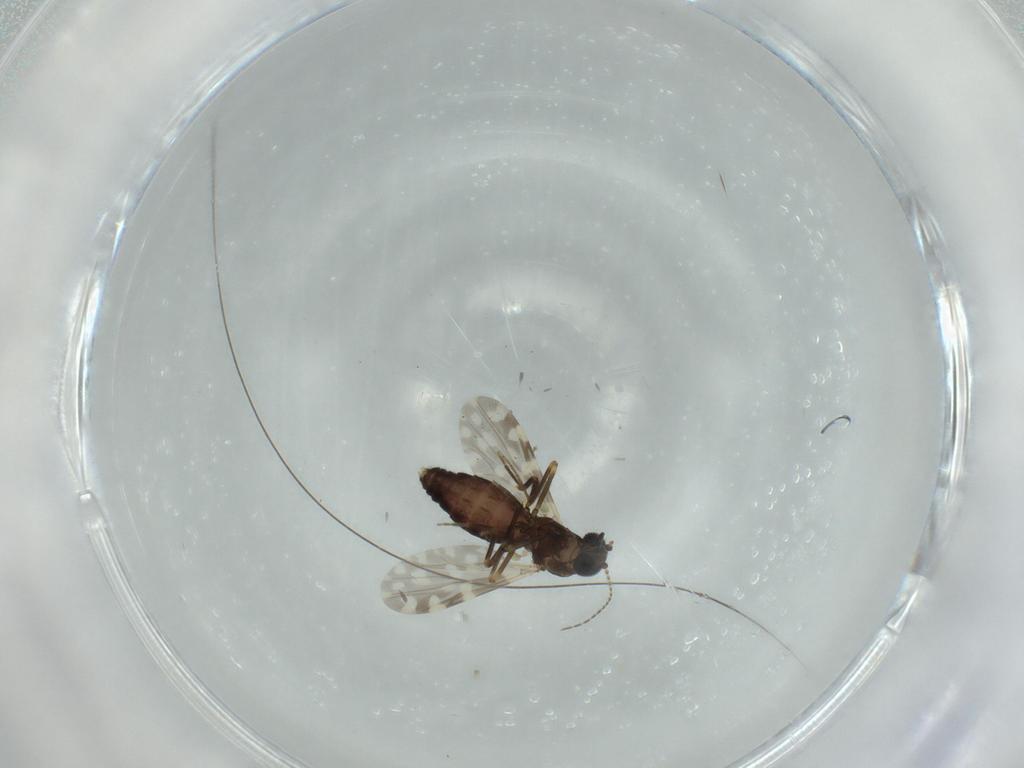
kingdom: Animalia
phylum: Arthropoda
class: Insecta
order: Diptera
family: Ceratopogonidae
